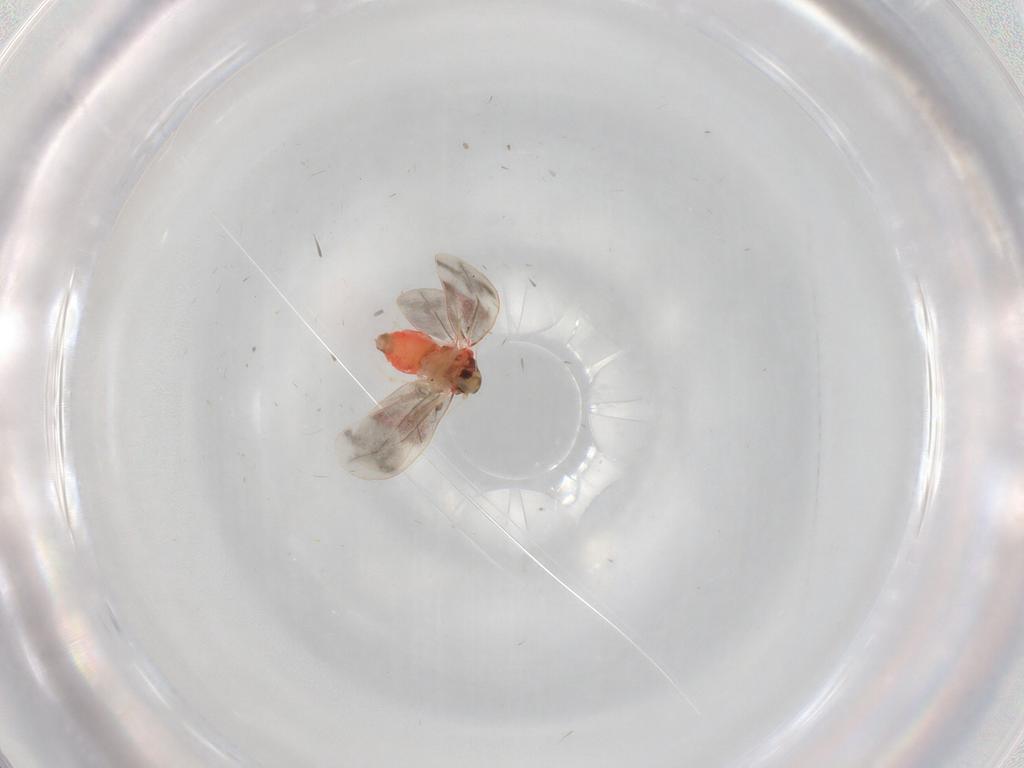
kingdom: Animalia
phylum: Arthropoda
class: Insecta
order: Hemiptera
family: Aleyrodidae
